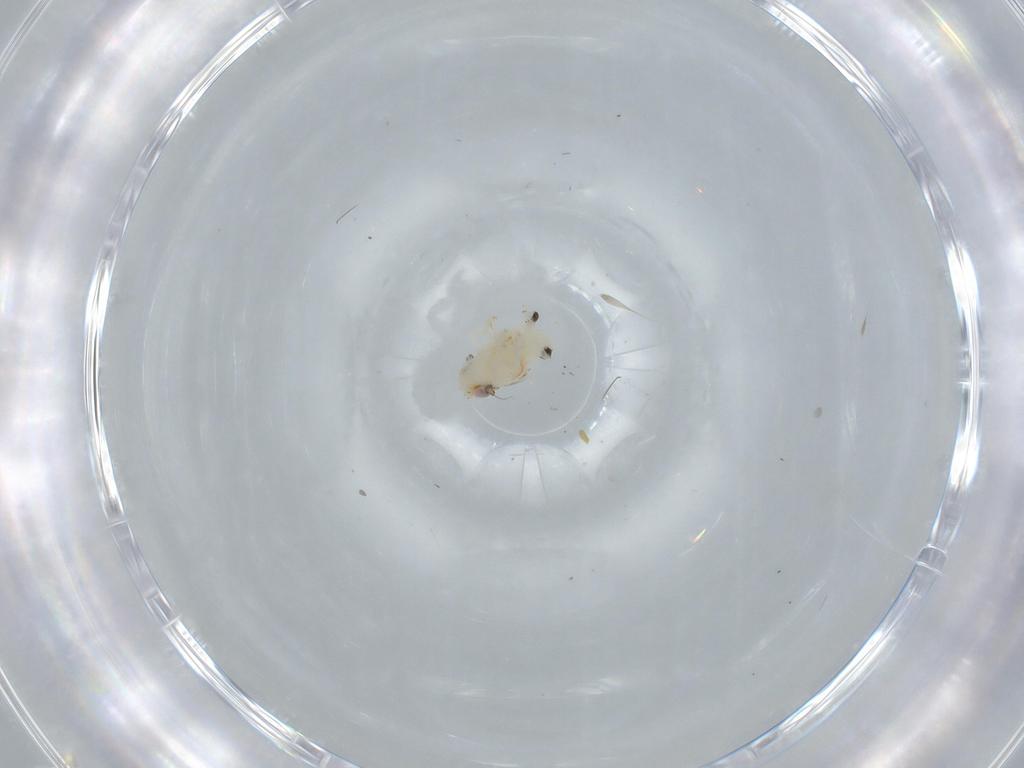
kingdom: Animalia
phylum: Arthropoda
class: Insecta
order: Hemiptera
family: Nogodinidae
